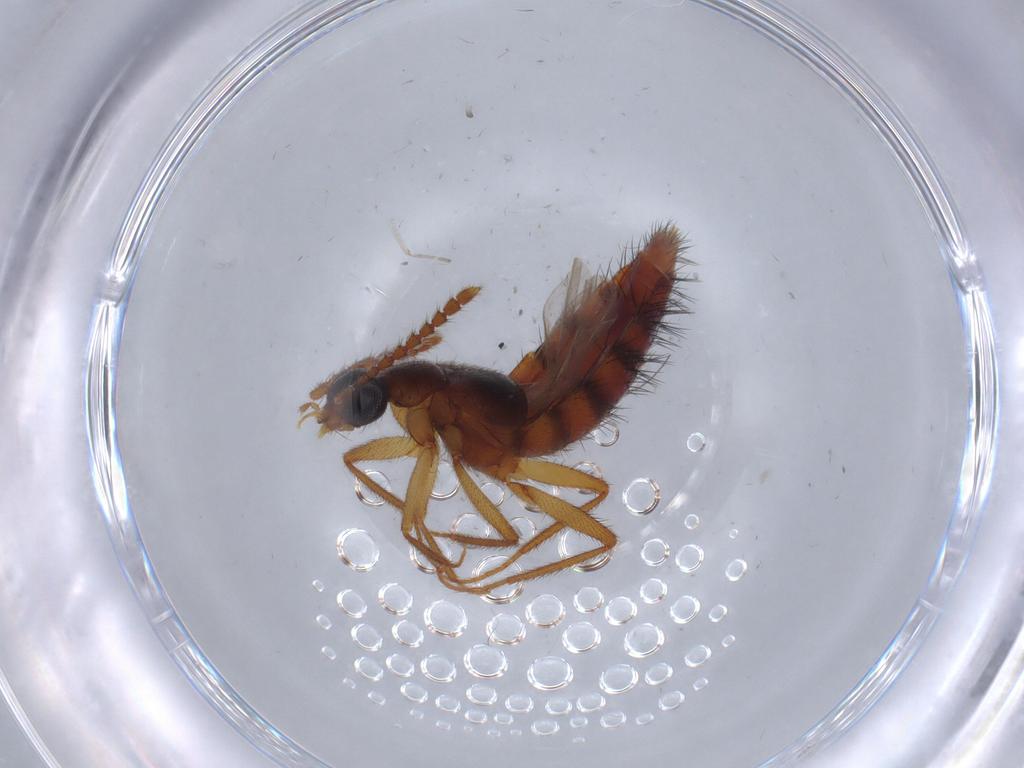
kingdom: Animalia
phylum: Arthropoda
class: Insecta
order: Coleoptera
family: Staphylinidae
